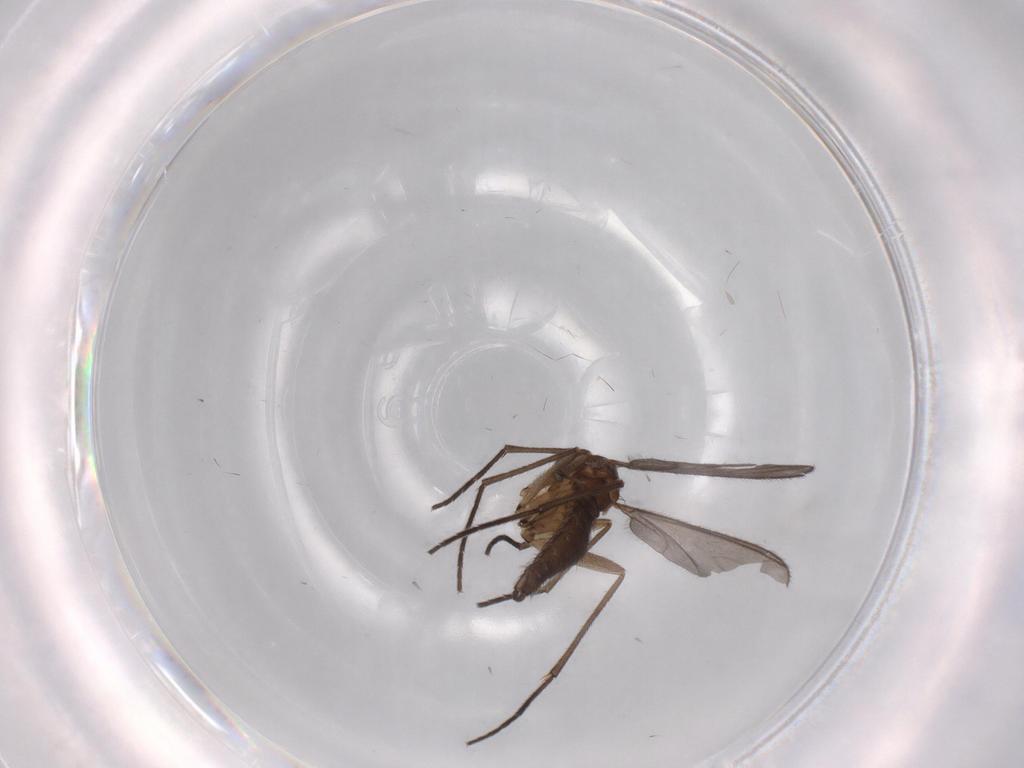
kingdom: Animalia
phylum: Arthropoda
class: Insecta
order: Diptera
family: Sciaridae
